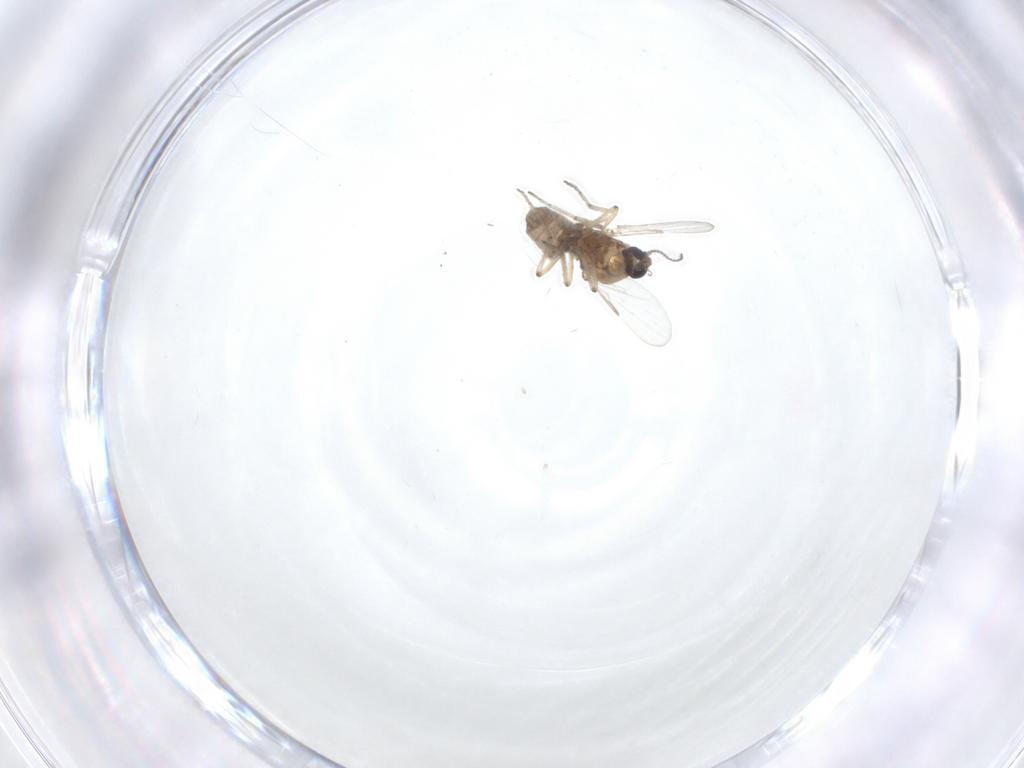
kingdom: Animalia
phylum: Arthropoda
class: Insecta
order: Diptera
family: Ceratopogonidae
